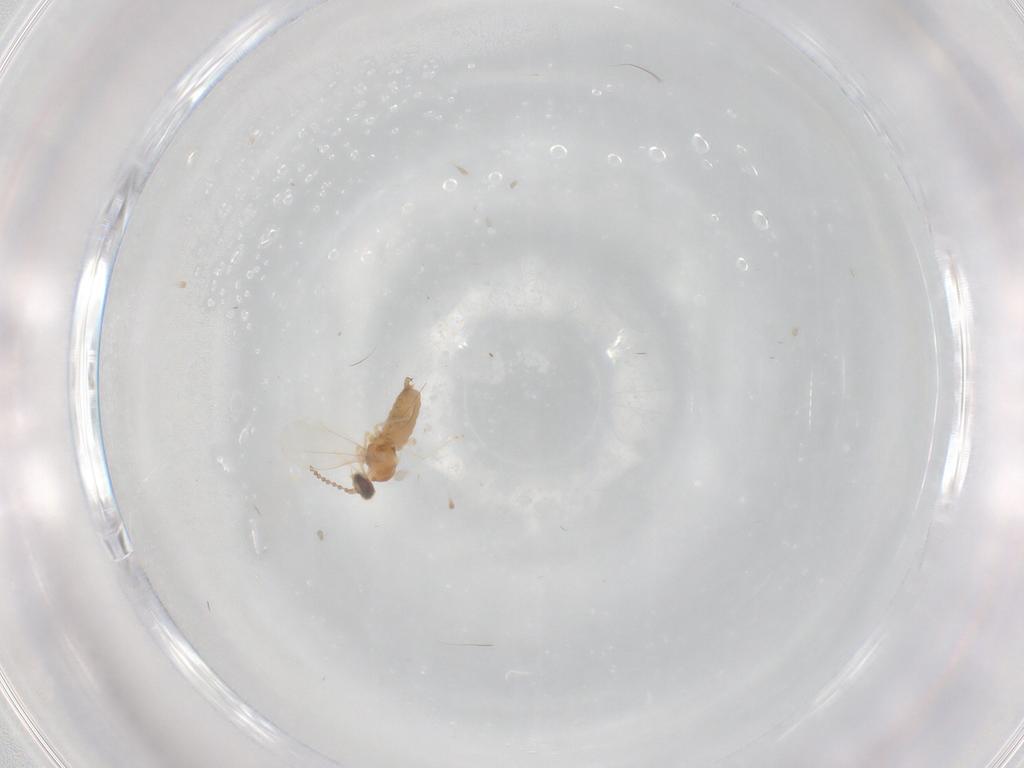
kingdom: Animalia
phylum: Arthropoda
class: Insecta
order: Diptera
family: Cecidomyiidae
